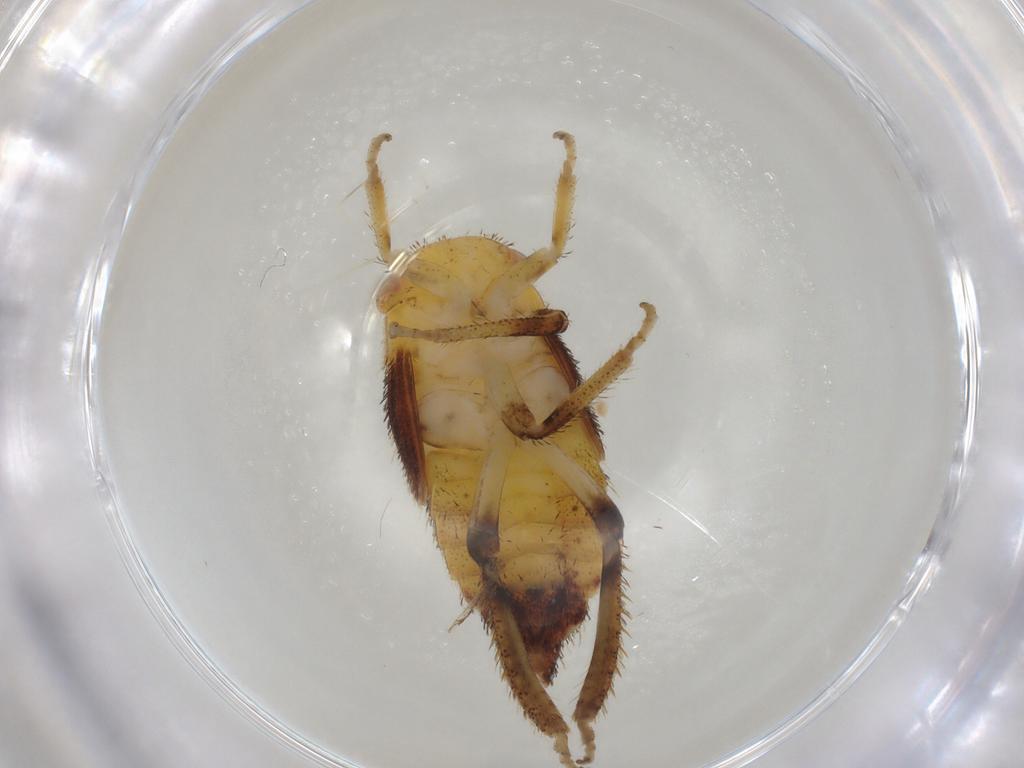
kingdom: Animalia
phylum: Arthropoda
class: Insecta
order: Hemiptera
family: Cicadellidae
